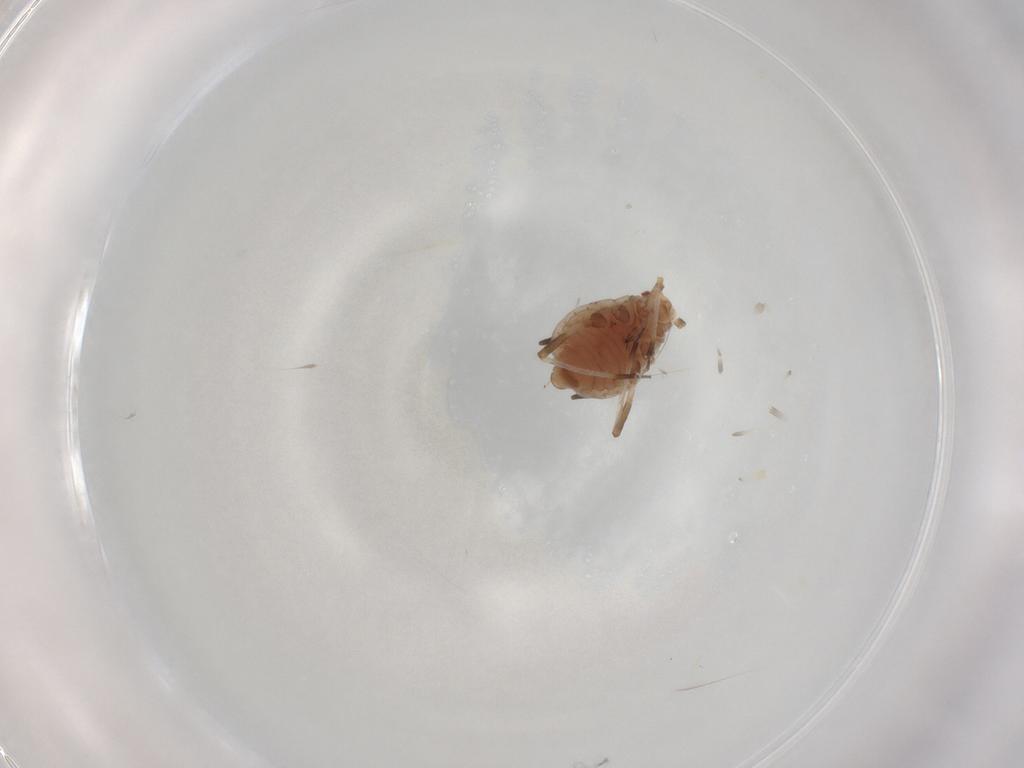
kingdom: Animalia
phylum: Arthropoda
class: Insecta
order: Hemiptera
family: Aphididae
